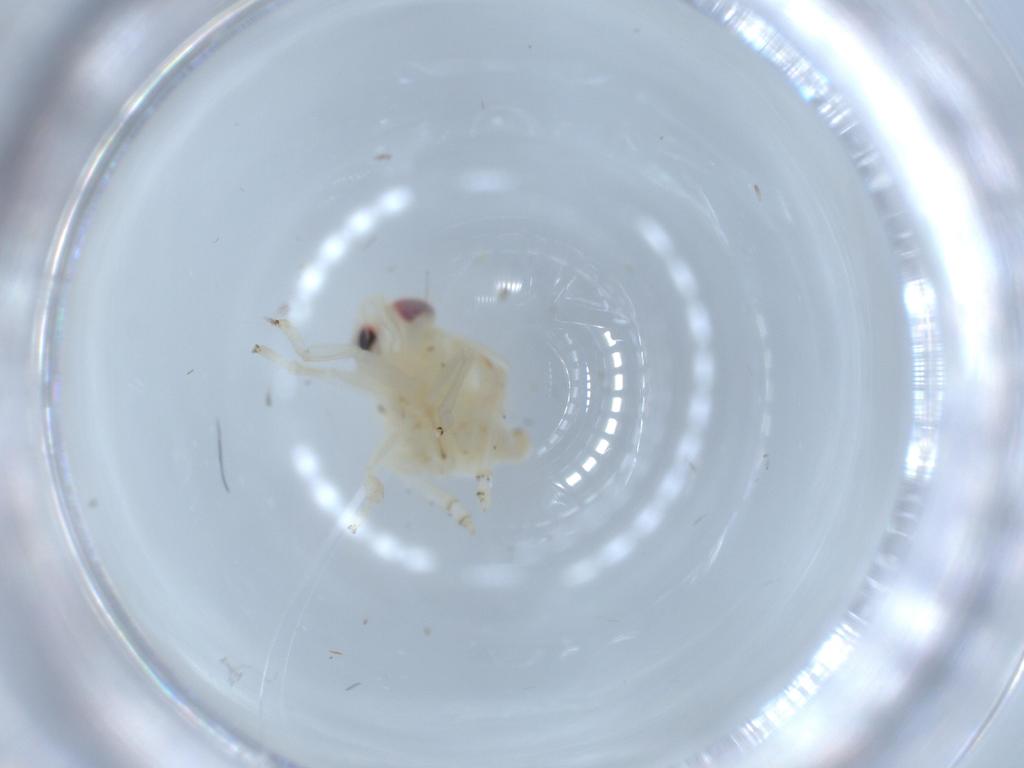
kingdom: Animalia
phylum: Arthropoda
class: Insecta
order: Hemiptera
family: Nogodinidae
